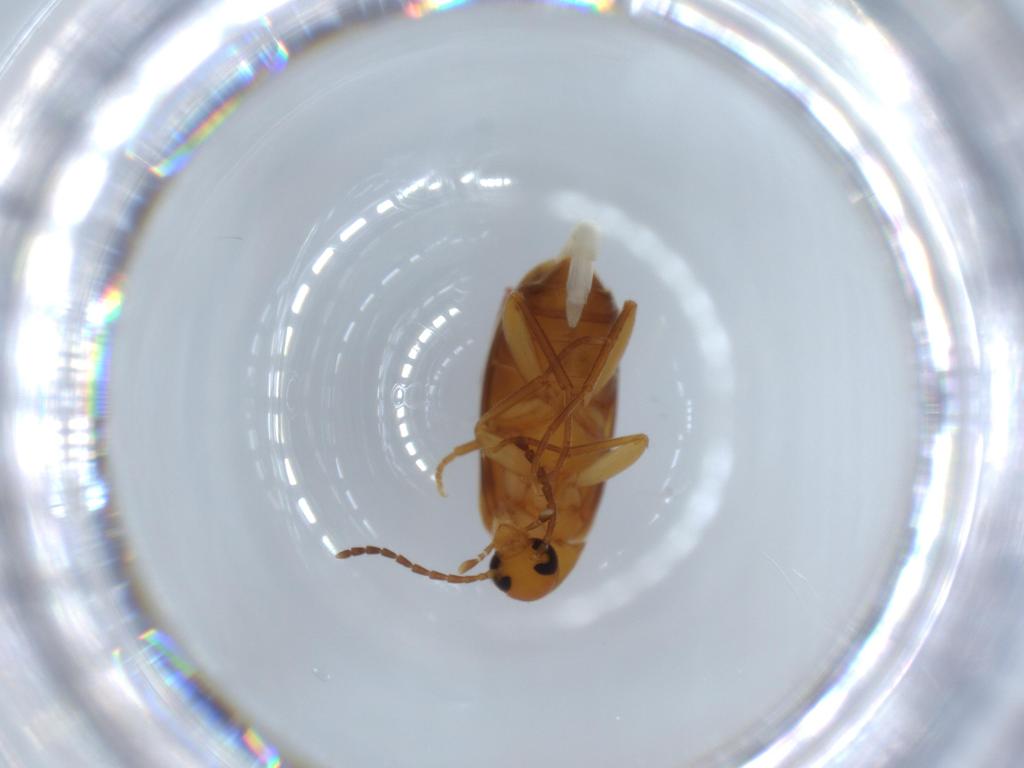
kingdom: Animalia
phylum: Arthropoda
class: Insecta
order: Coleoptera
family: Scraptiidae
